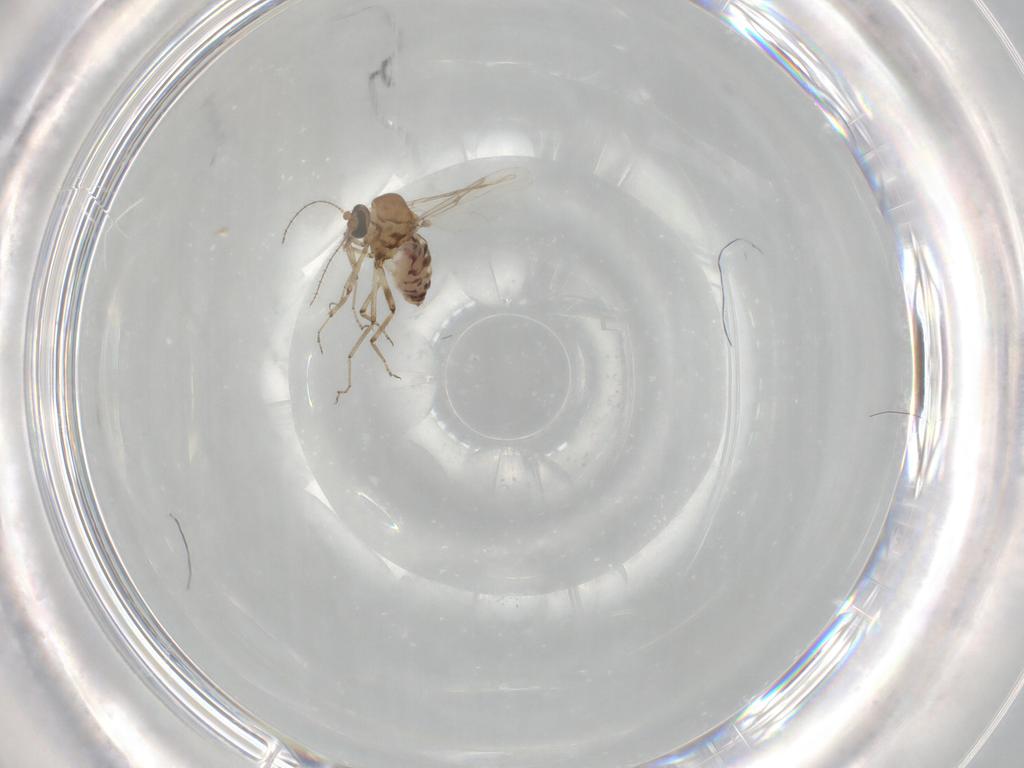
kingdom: Animalia
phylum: Arthropoda
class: Insecta
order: Diptera
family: Ceratopogonidae
